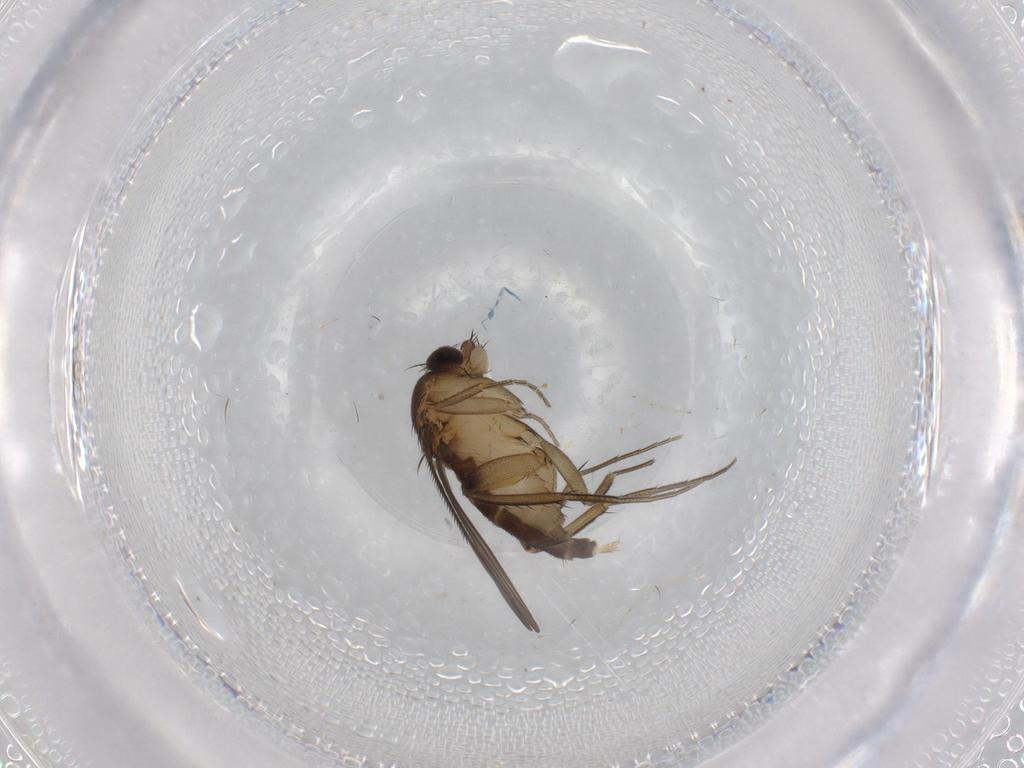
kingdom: Animalia
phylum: Arthropoda
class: Insecta
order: Diptera
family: Phoridae
